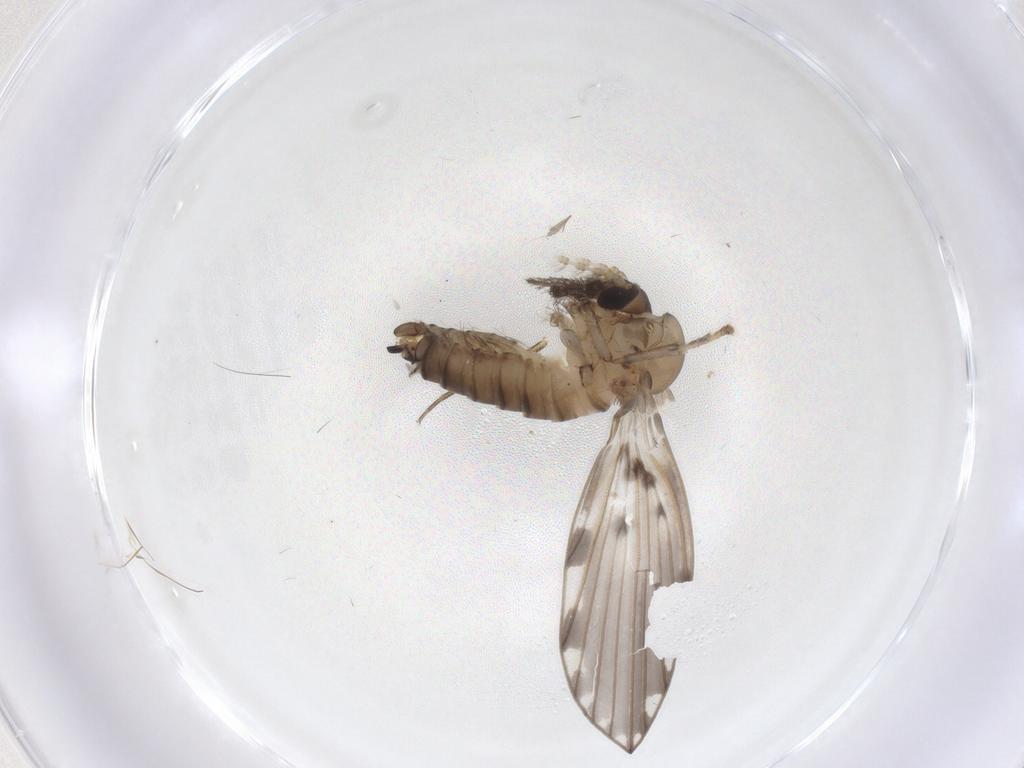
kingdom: Animalia
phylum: Arthropoda
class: Insecta
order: Diptera
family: Psychodidae
